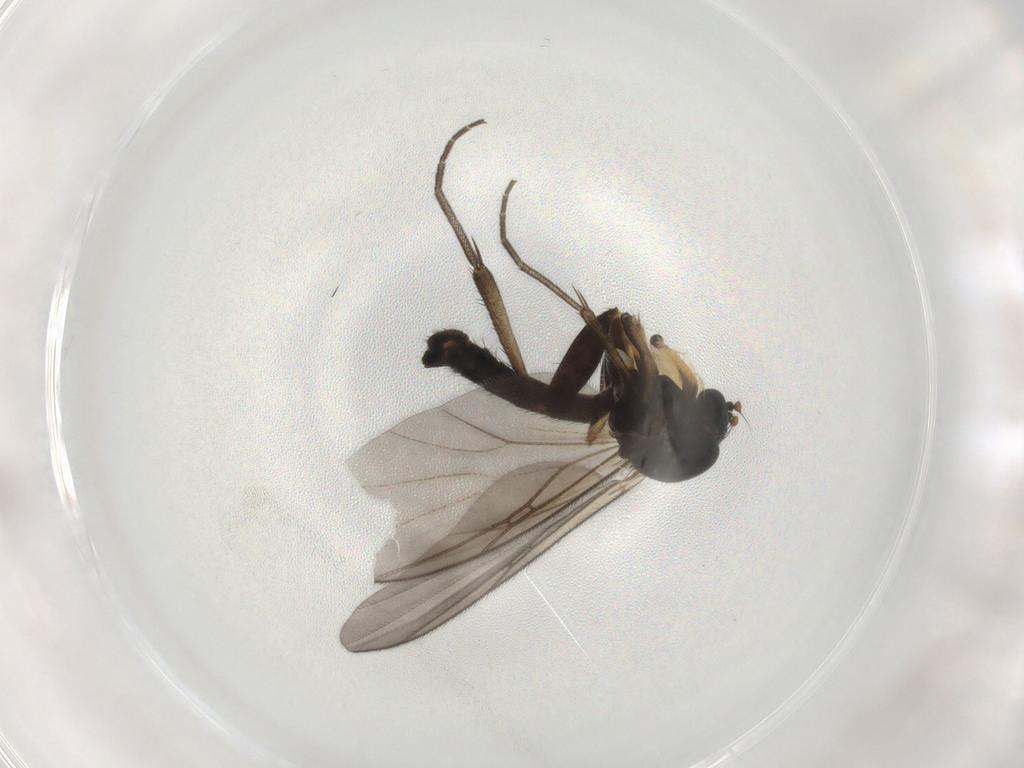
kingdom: Animalia
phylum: Arthropoda
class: Insecta
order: Diptera
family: Mycetophilidae
